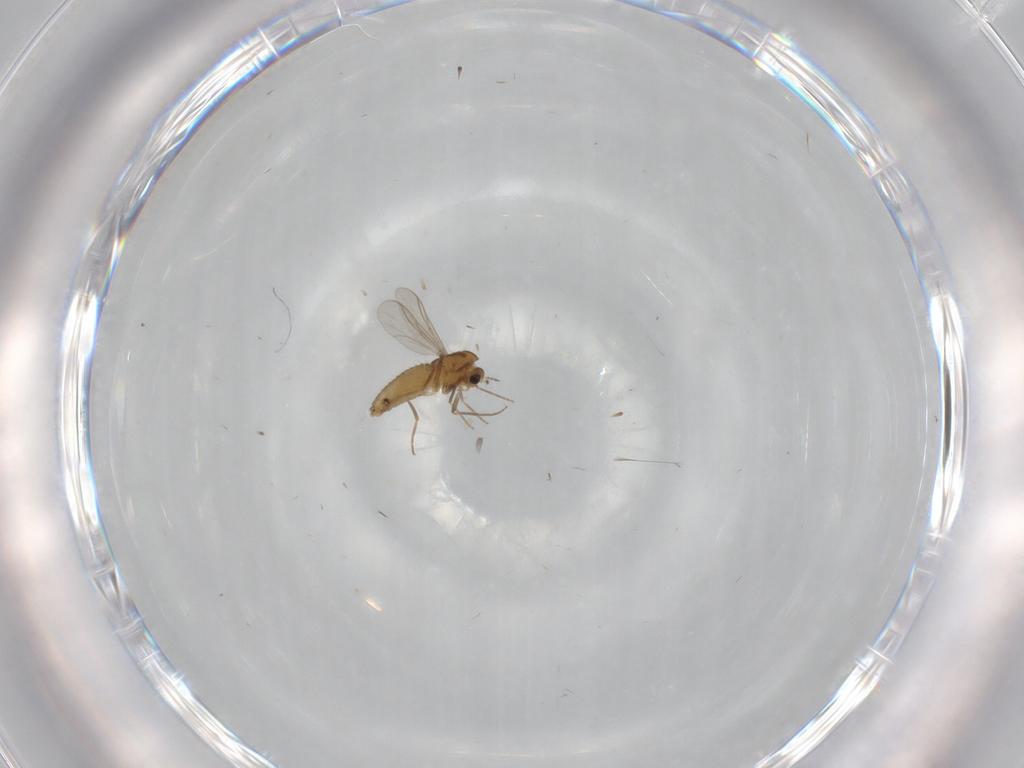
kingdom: Animalia
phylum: Arthropoda
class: Insecta
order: Diptera
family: Chironomidae
